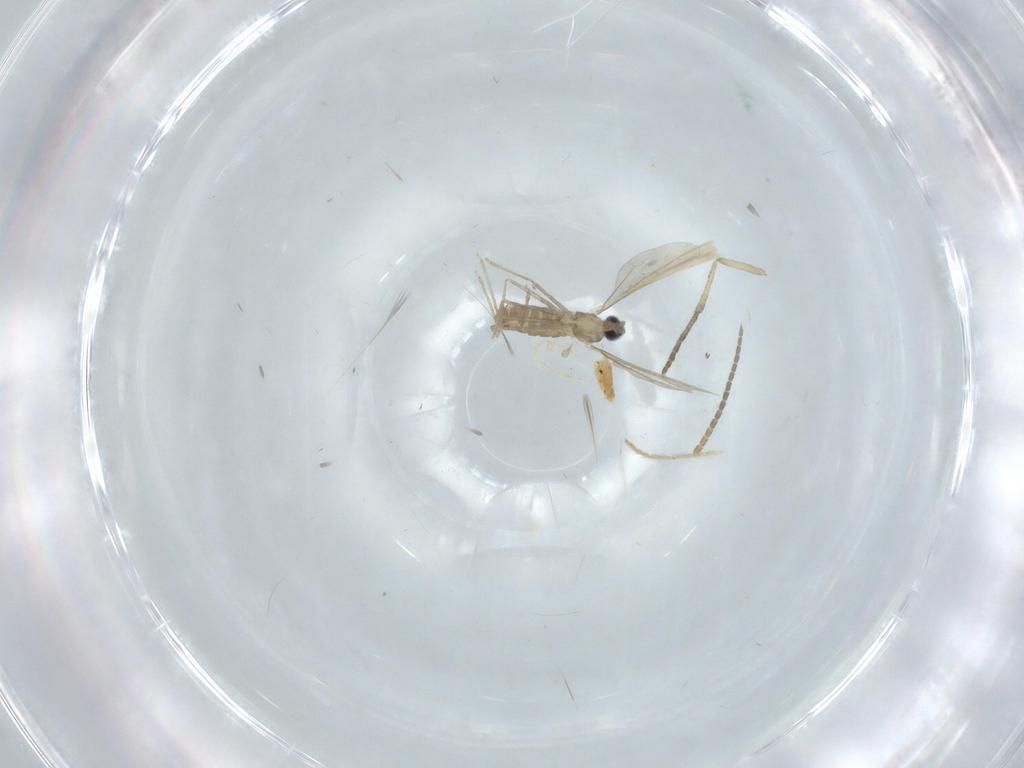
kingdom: Animalia
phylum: Arthropoda
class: Insecta
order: Diptera
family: Cecidomyiidae
